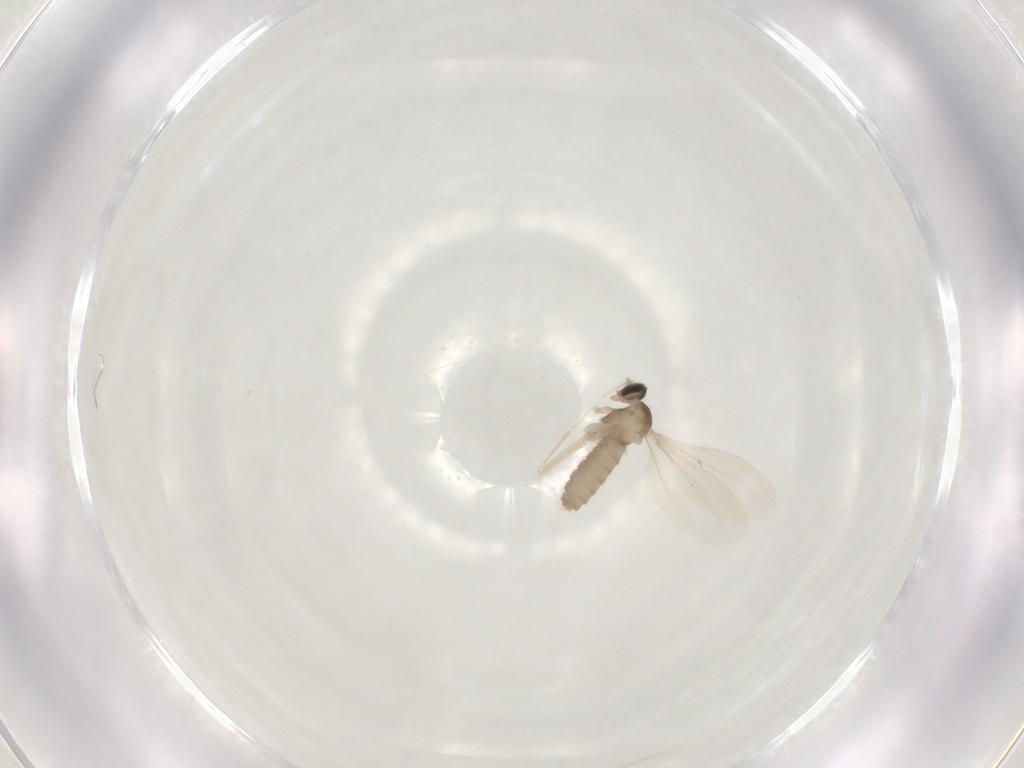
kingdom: Animalia
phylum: Arthropoda
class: Insecta
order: Diptera
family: Cecidomyiidae
